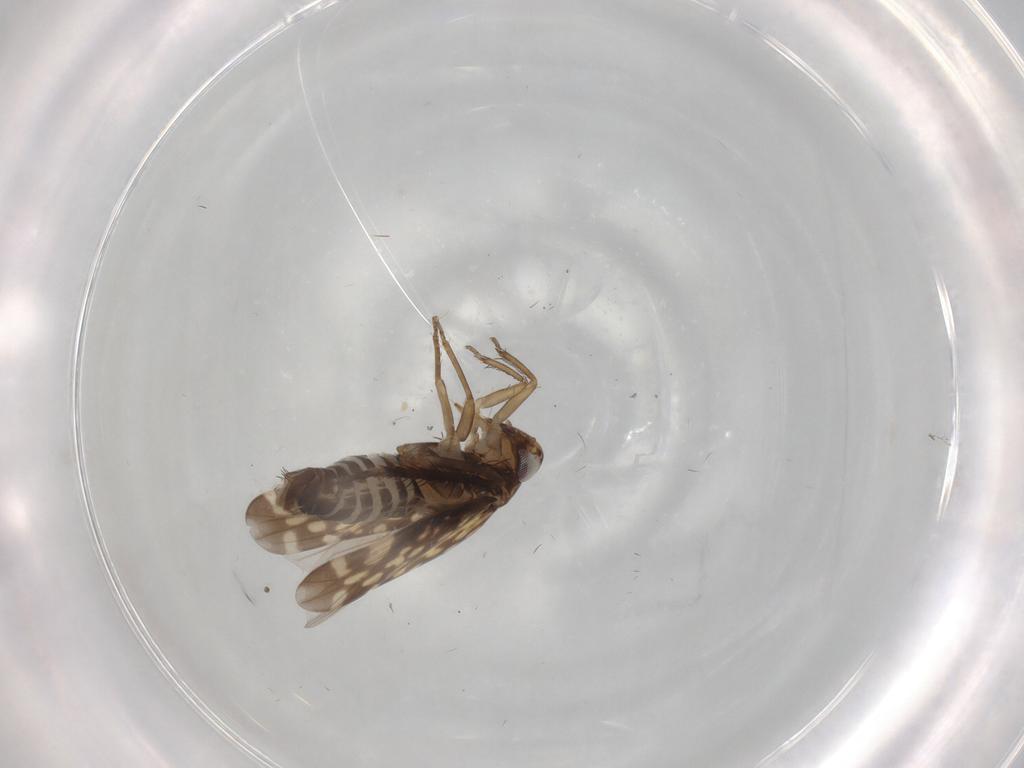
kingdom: Animalia
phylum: Arthropoda
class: Insecta
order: Hemiptera
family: Cicadellidae
